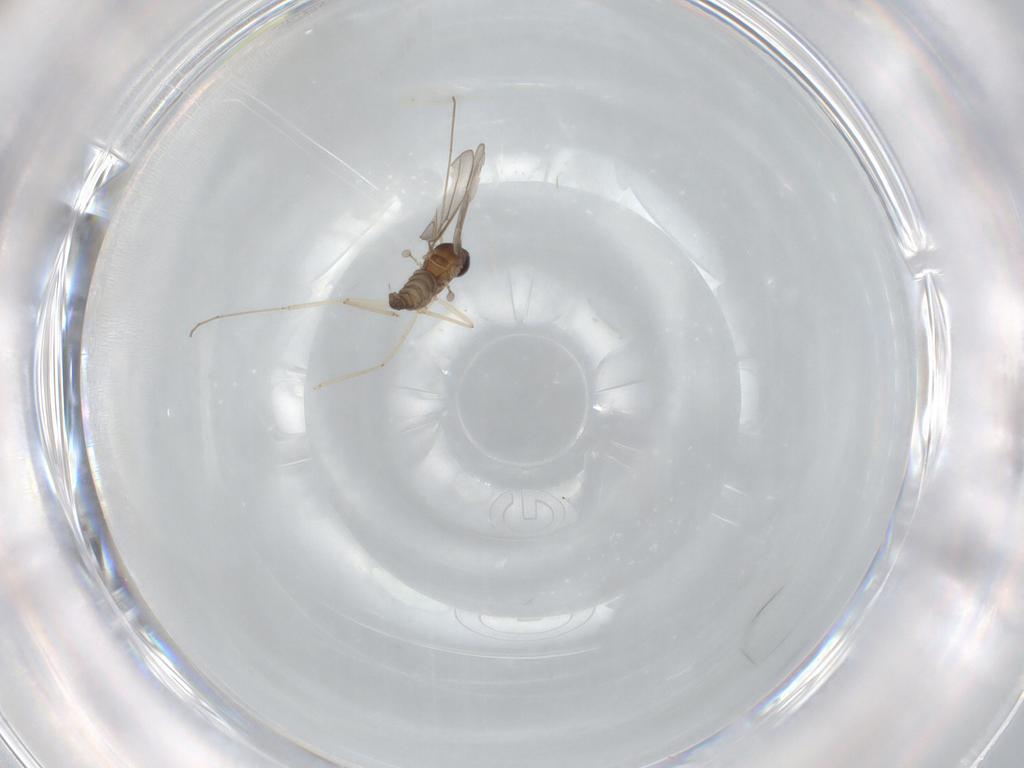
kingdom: Animalia
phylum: Arthropoda
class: Insecta
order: Diptera
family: Cecidomyiidae
